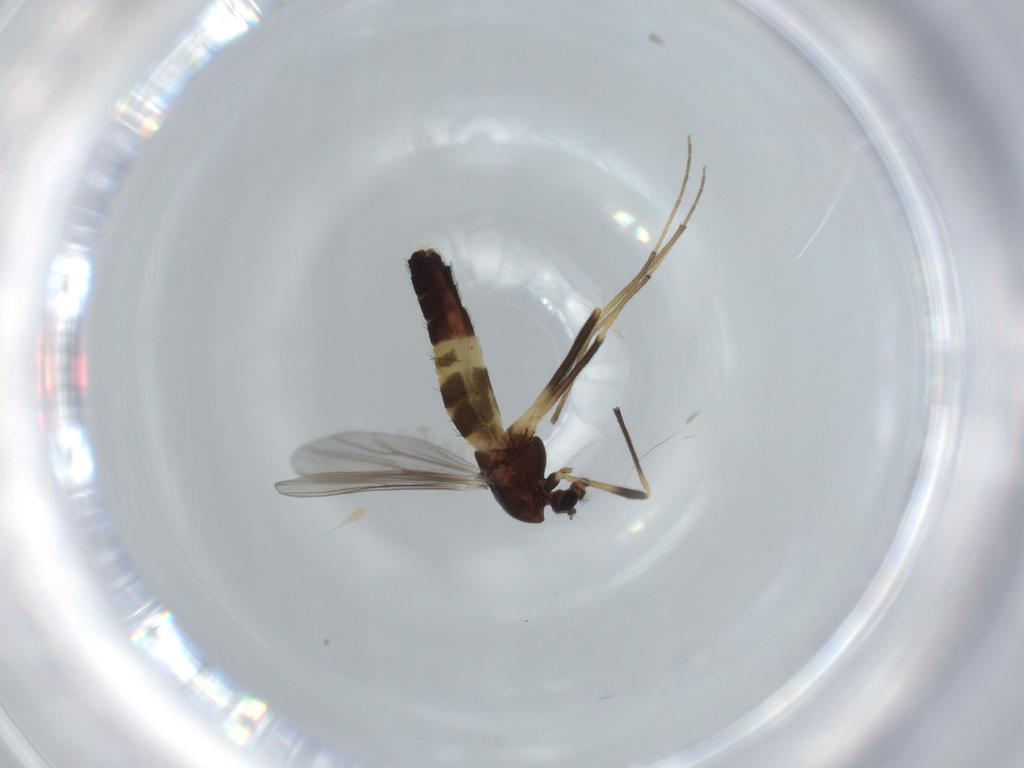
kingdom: Animalia
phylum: Arthropoda
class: Insecta
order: Diptera
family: Chironomidae
